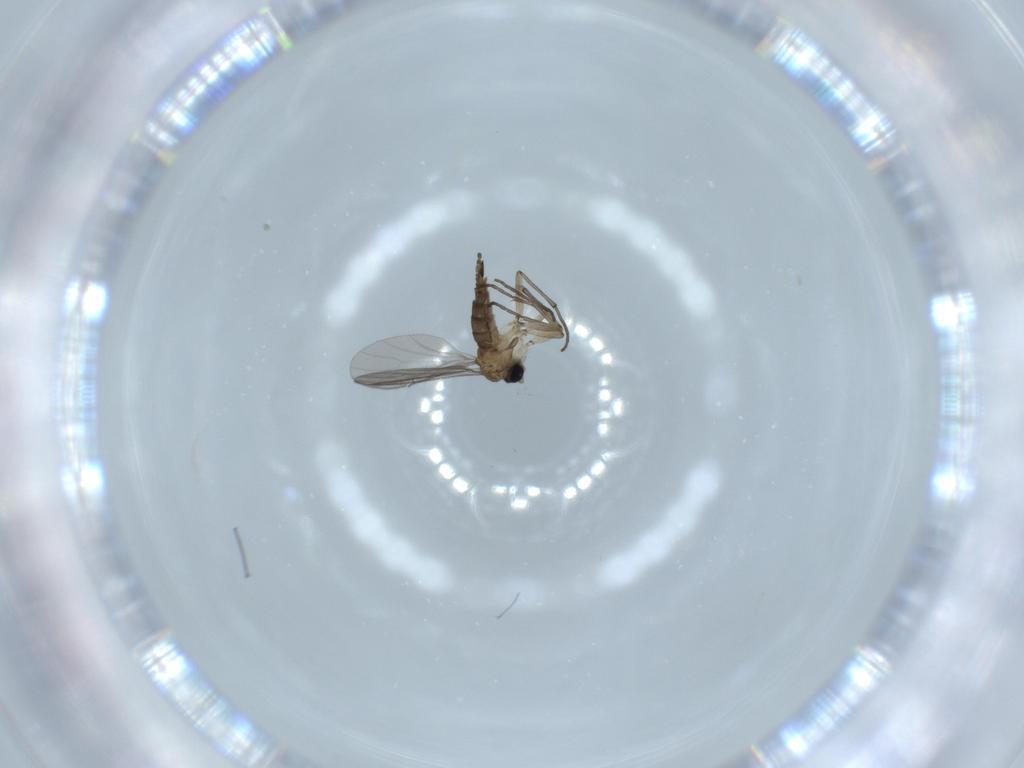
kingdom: Animalia
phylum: Arthropoda
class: Insecta
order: Diptera
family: Sciaridae
